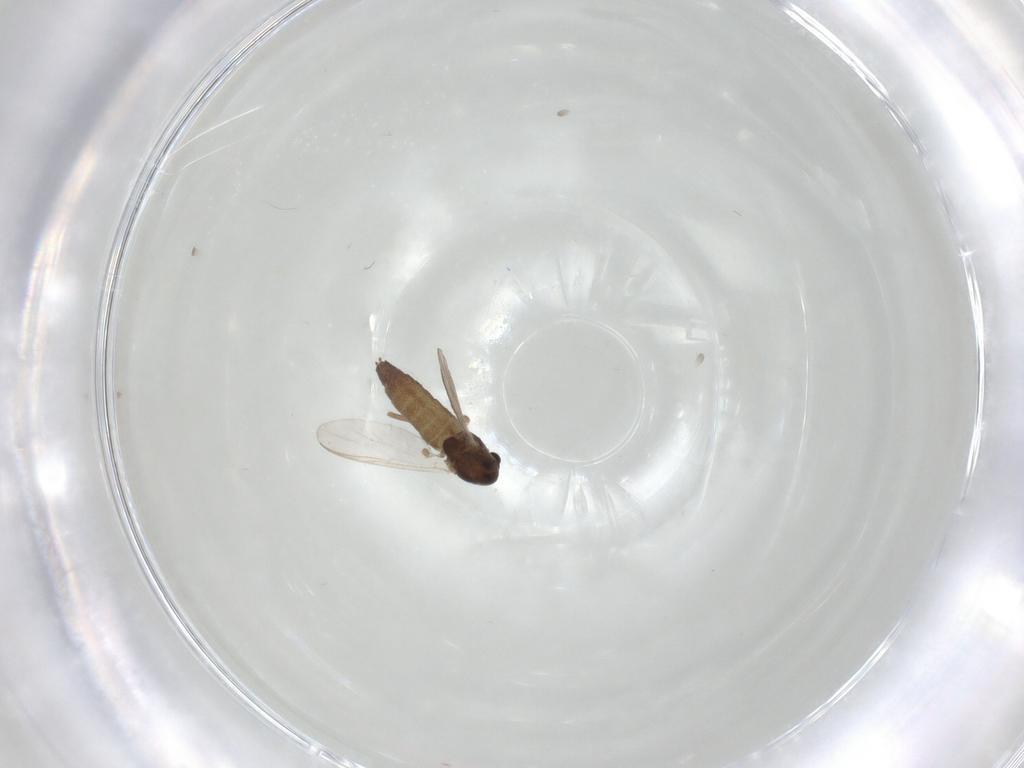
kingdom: Animalia
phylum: Arthropoda
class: Insecta
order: Diptera
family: Chironomidae
